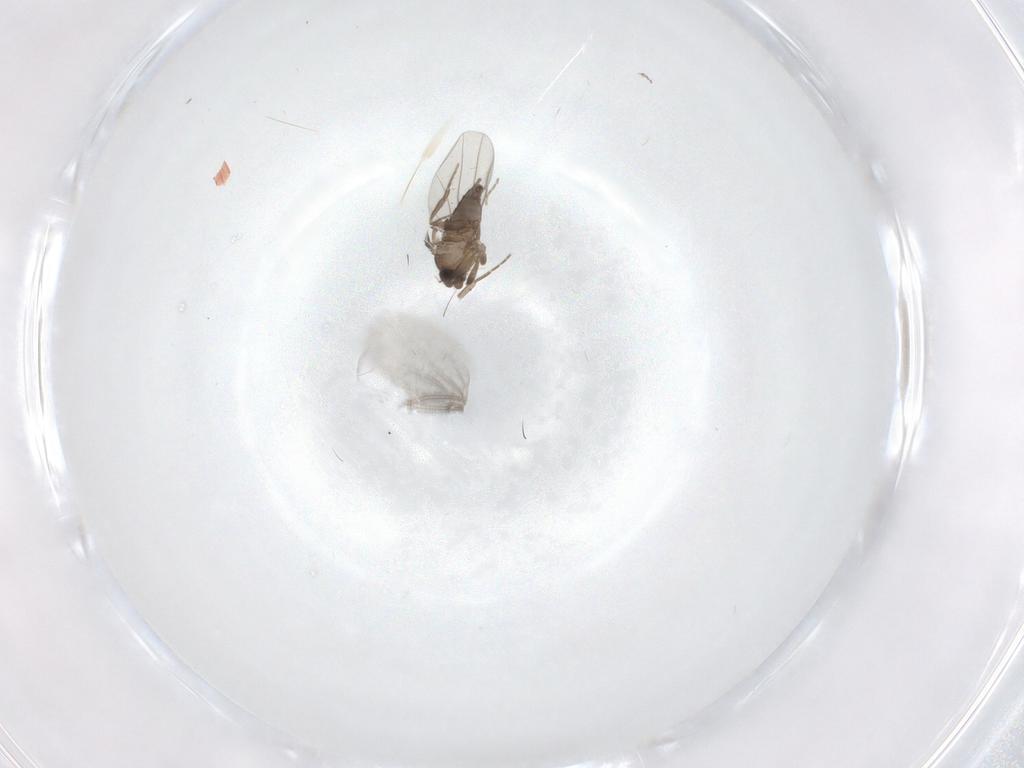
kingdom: Animalia
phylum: Arthropoda
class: Insecta
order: Diptera
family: Phoridae
